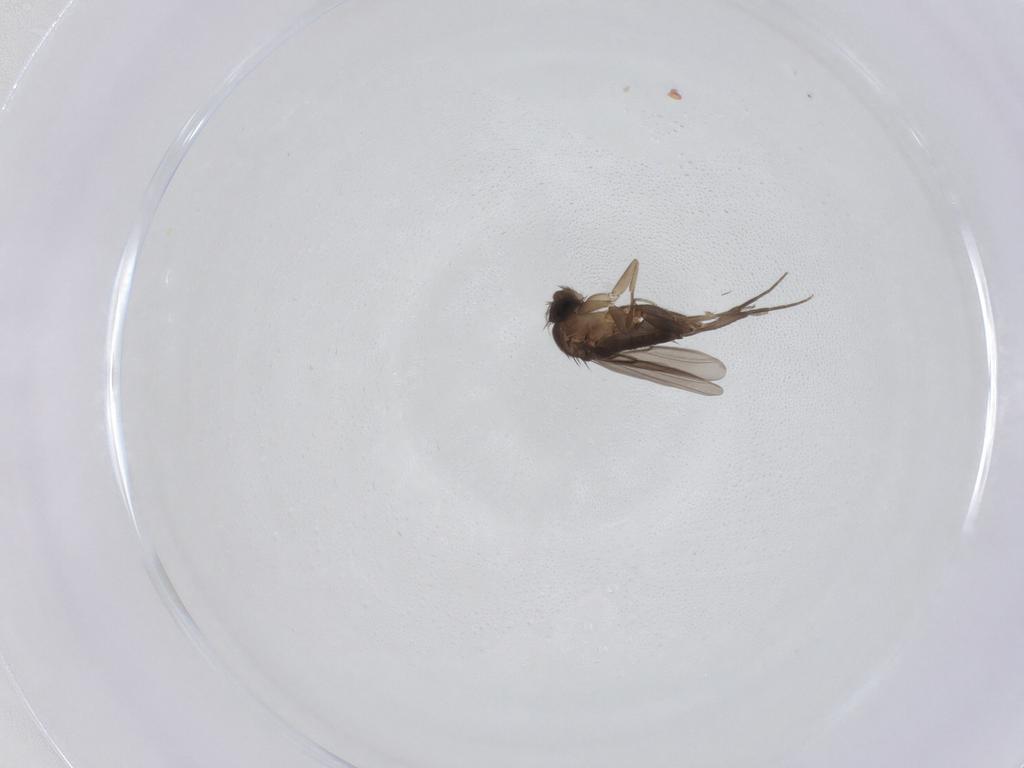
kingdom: Animalia
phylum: Arthropoda
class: Insecta
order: Diptera
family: Phoridae
